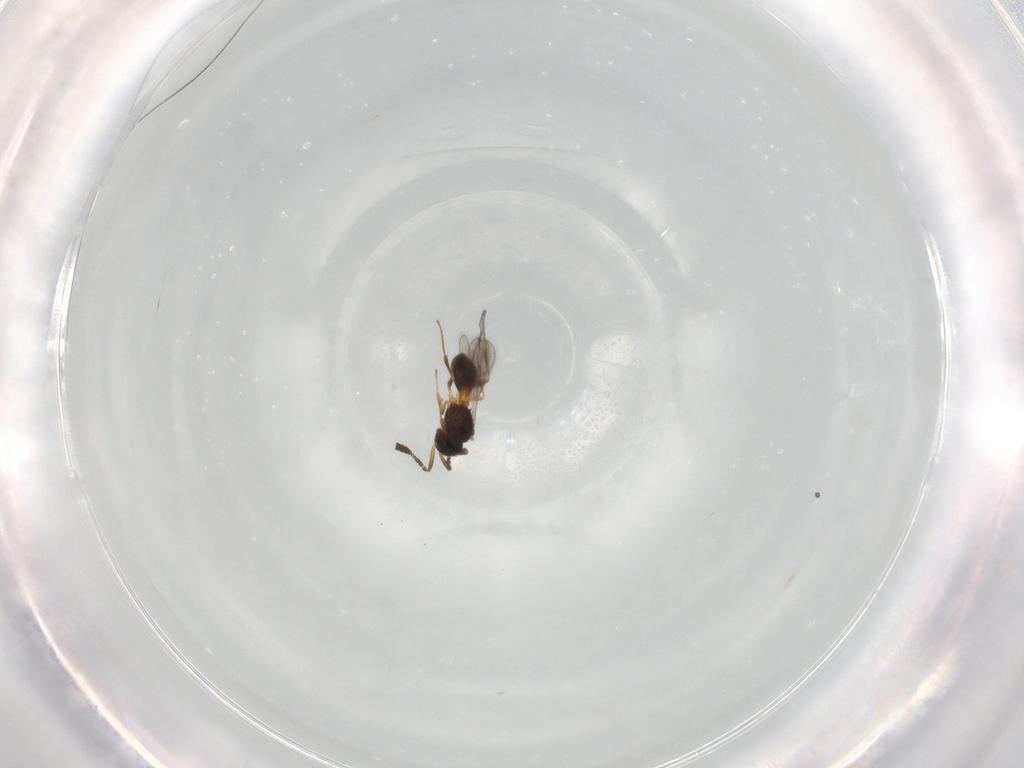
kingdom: Animalia
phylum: Arthropoda
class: Insecta
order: Hymenoptera
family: Scelionidae
